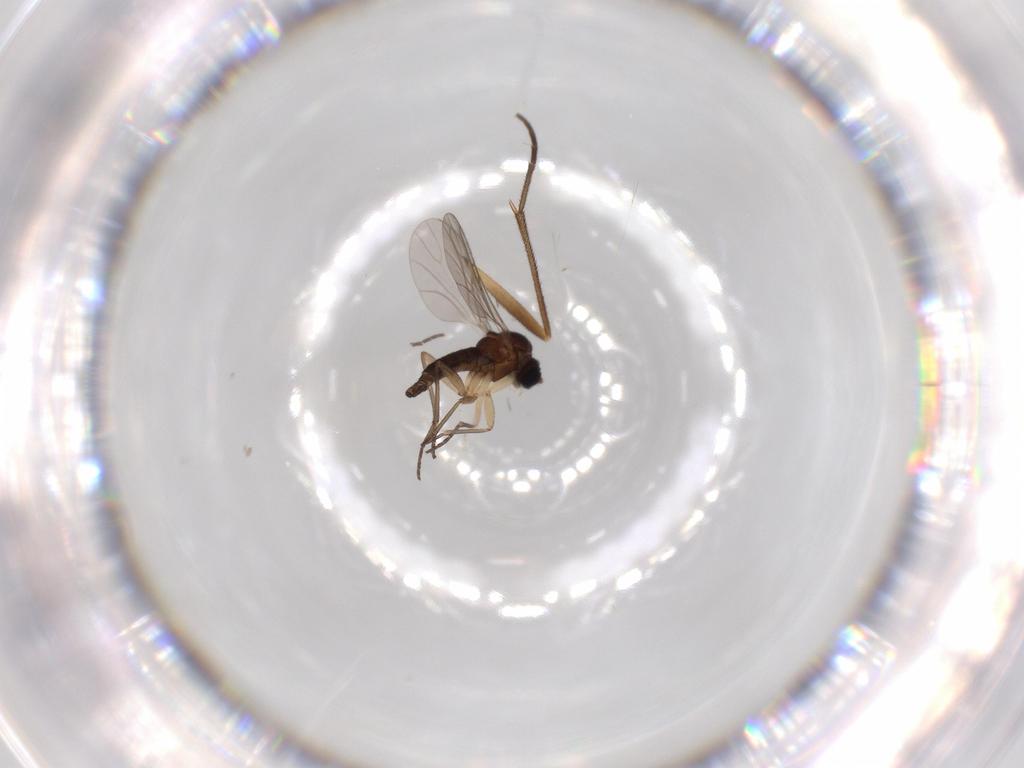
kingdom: Animalia
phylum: Arthropoda
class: Insecta
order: Diptera
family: Sciaridae
